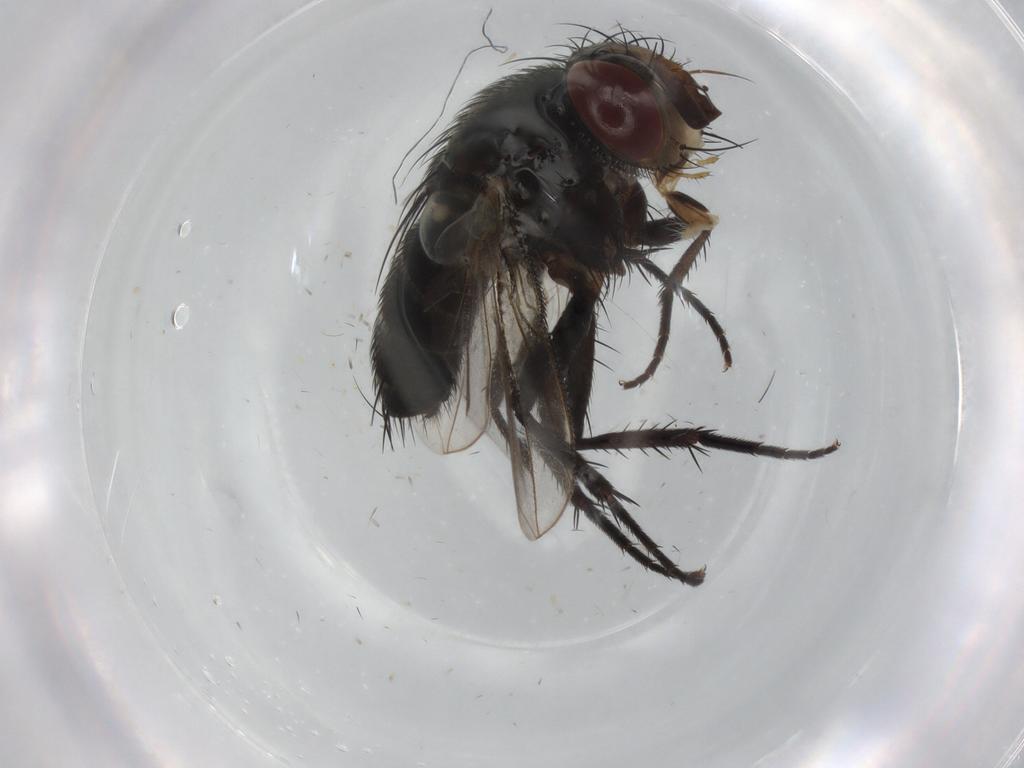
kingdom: Animalia
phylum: Arthropoda
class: Insecta
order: Diptera
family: Tachinidae
